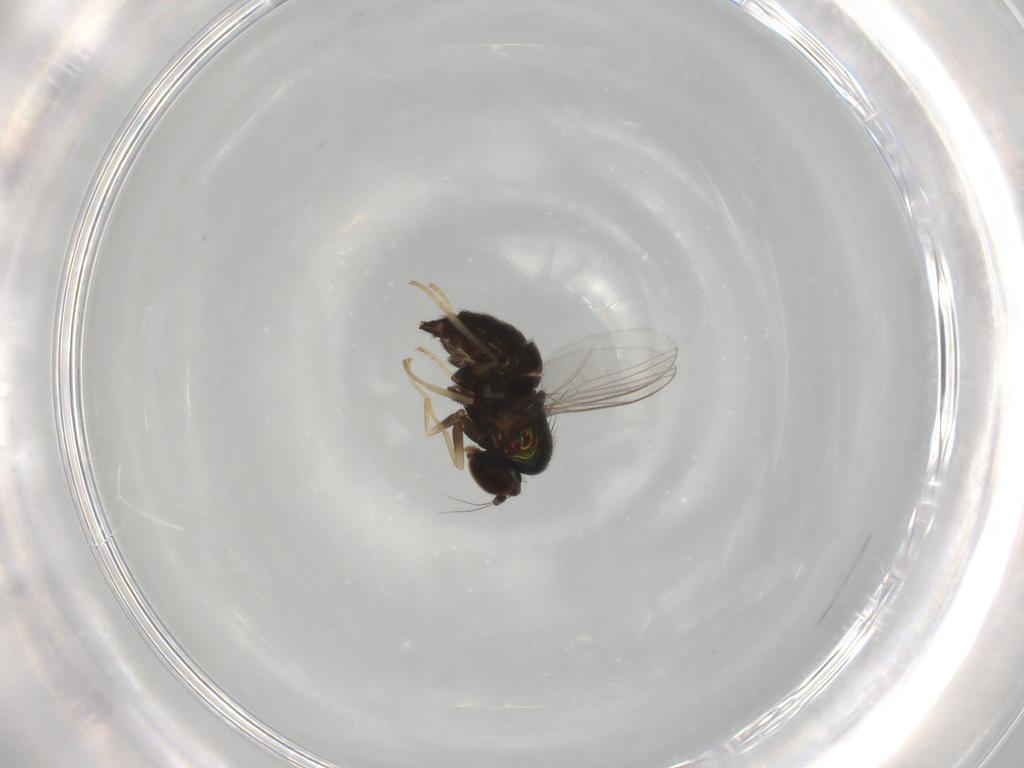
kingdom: Animalia
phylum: Arthropoda
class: Insecta
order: Diptera
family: Dolichopodidae
